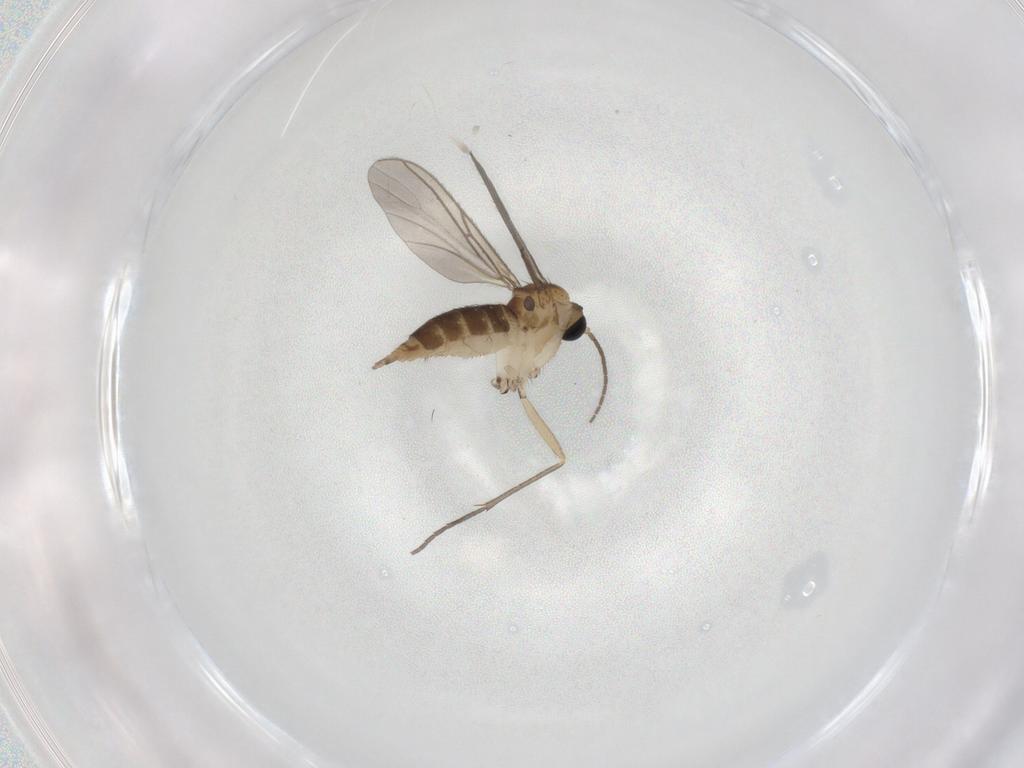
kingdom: Animalia
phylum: Arthropoda
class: Insecta
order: Diptera
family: Sciaridae
